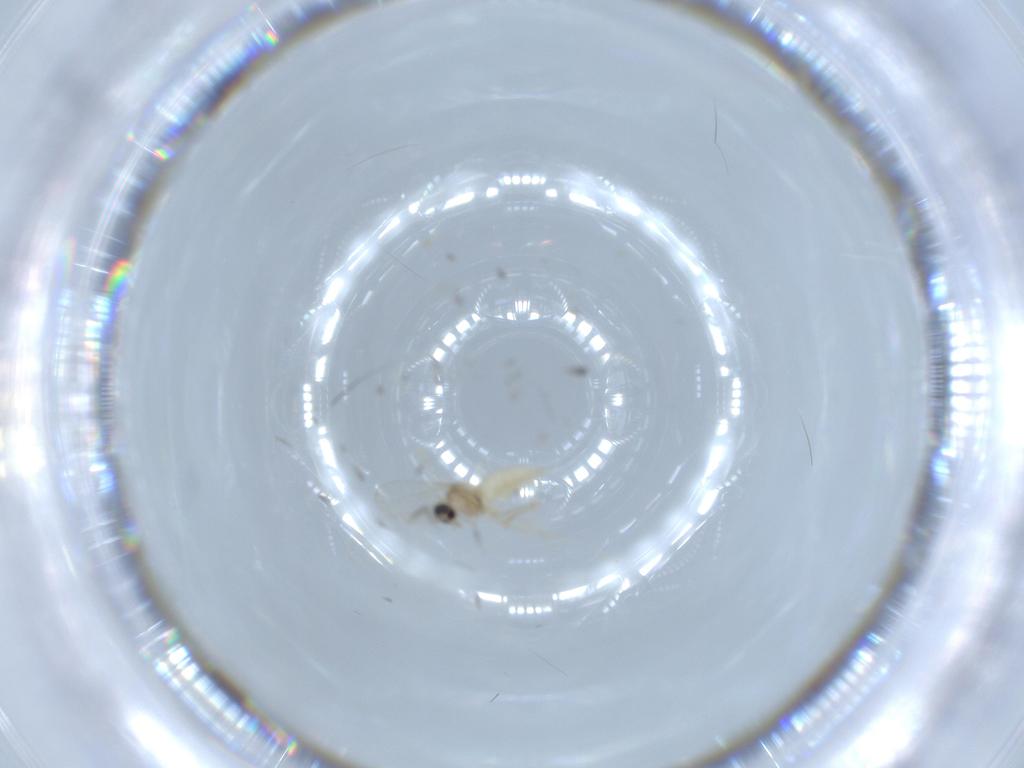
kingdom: Animalia
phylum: Arthropoda
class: Insecta
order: Diptera
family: Cecidomyiidae
